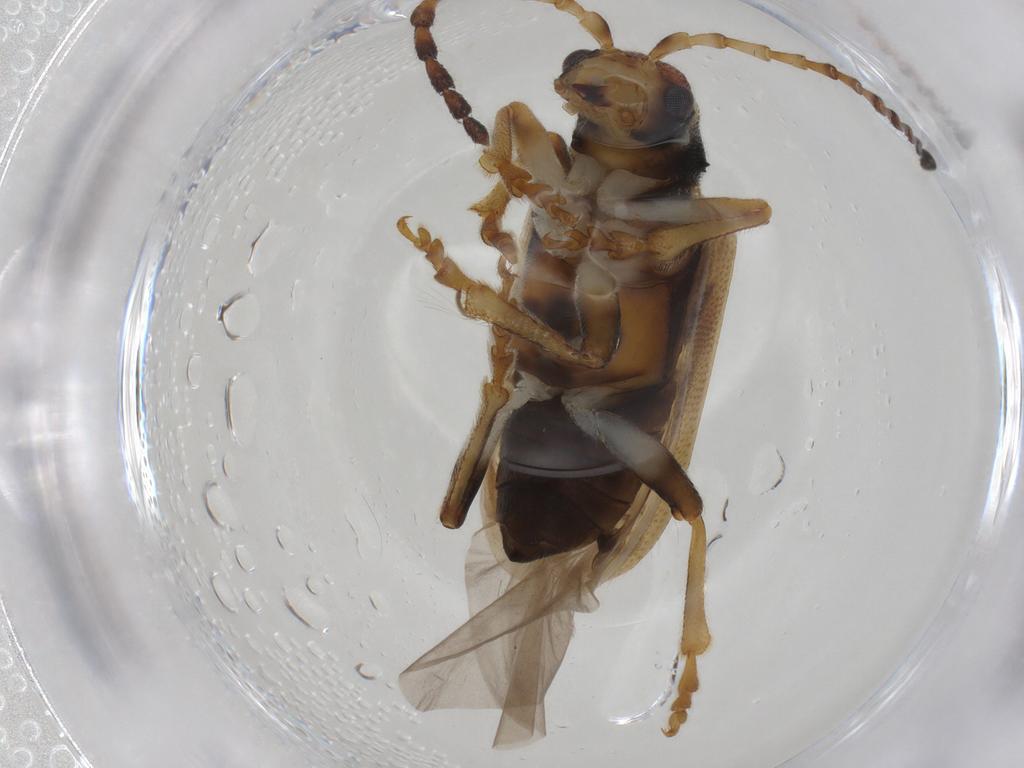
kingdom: Animalia
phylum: Arthropoda
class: Insecta
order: Coleoptera
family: Chrysomelidae
